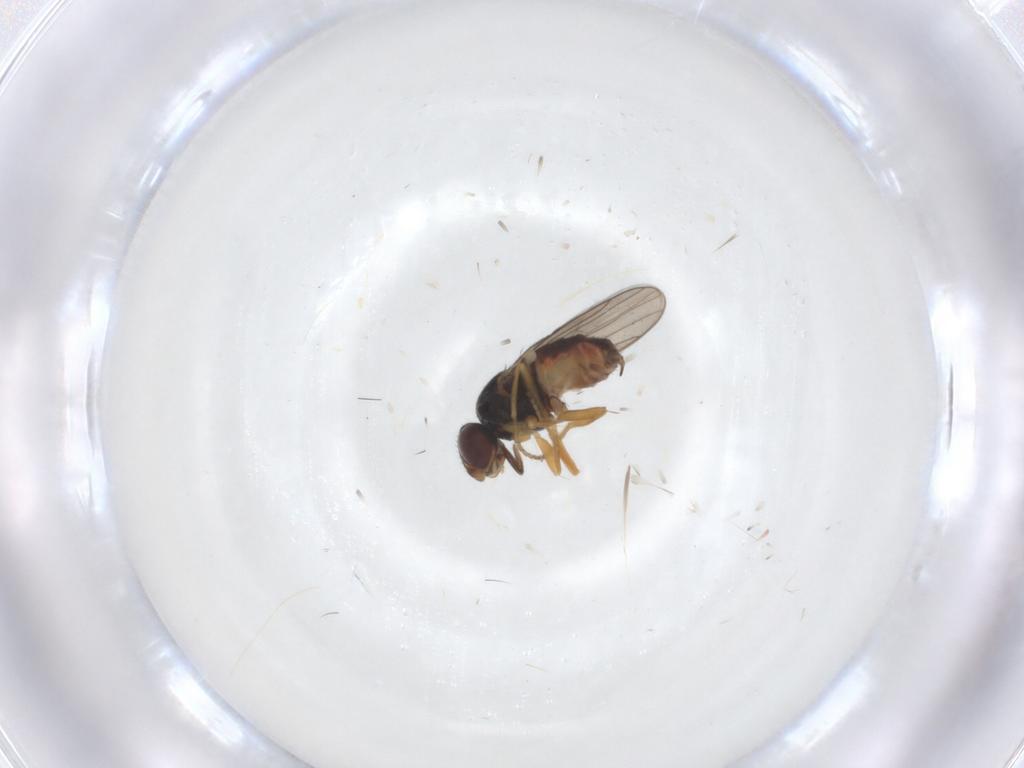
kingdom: Animalia
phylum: Arthropoda
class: Insecta
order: Diptera
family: Chloropidae
